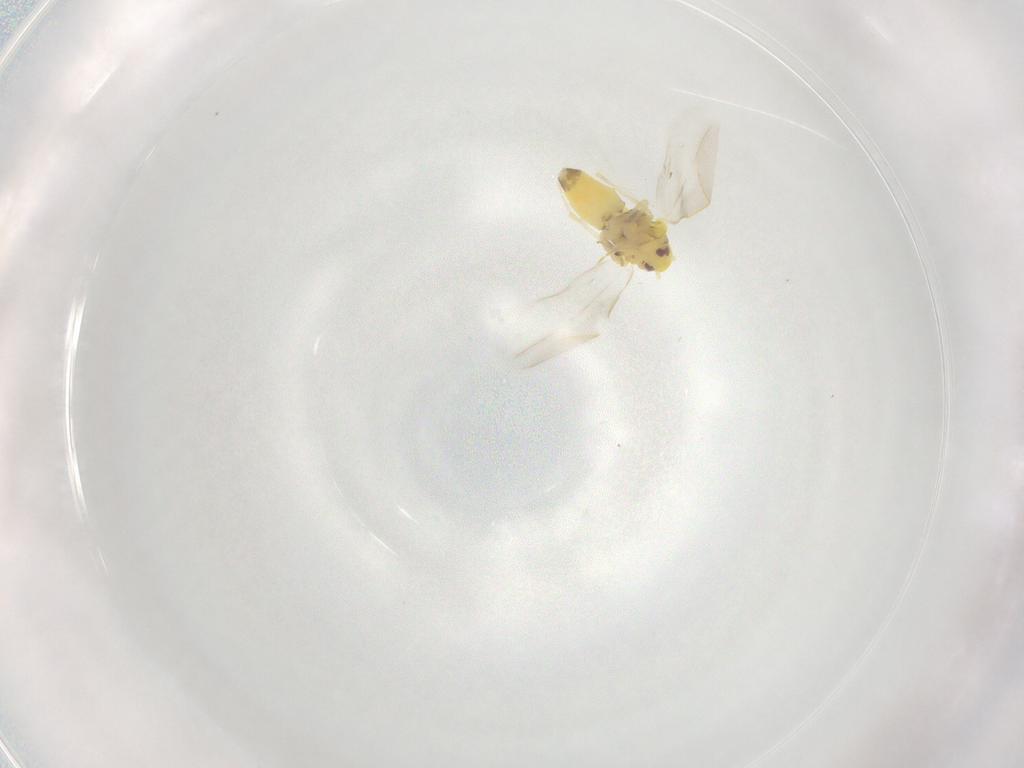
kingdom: Animalia
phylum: Arthropoda
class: Insecta
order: Hemiptera
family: Aleyrodidae
